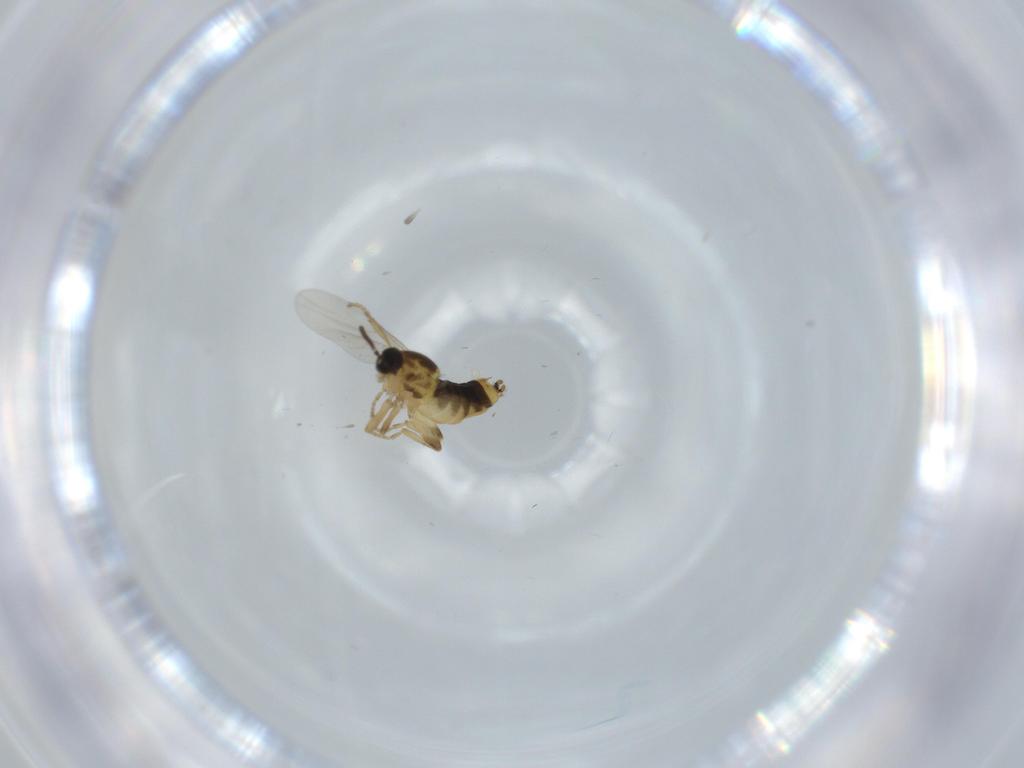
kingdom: Animalia
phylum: Arthropoda
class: Insecta
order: Diptera
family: Scatopsidae
